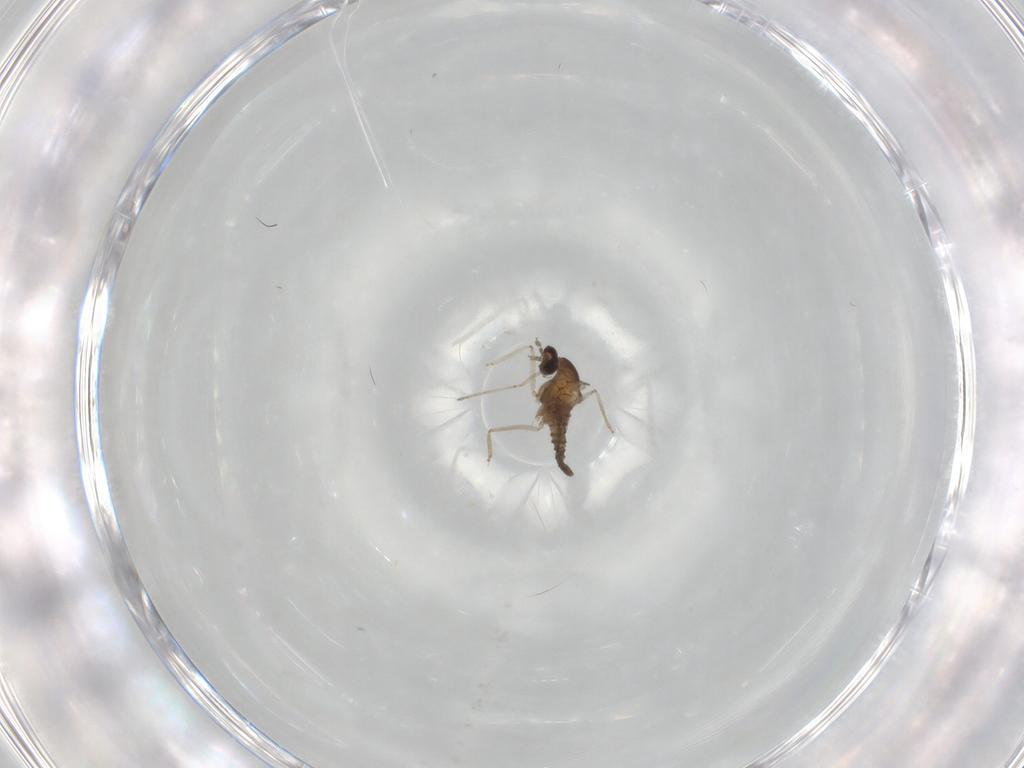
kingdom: Animalia
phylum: Arthropoda
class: Insecta
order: Diptera
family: Cecidomyiidae
